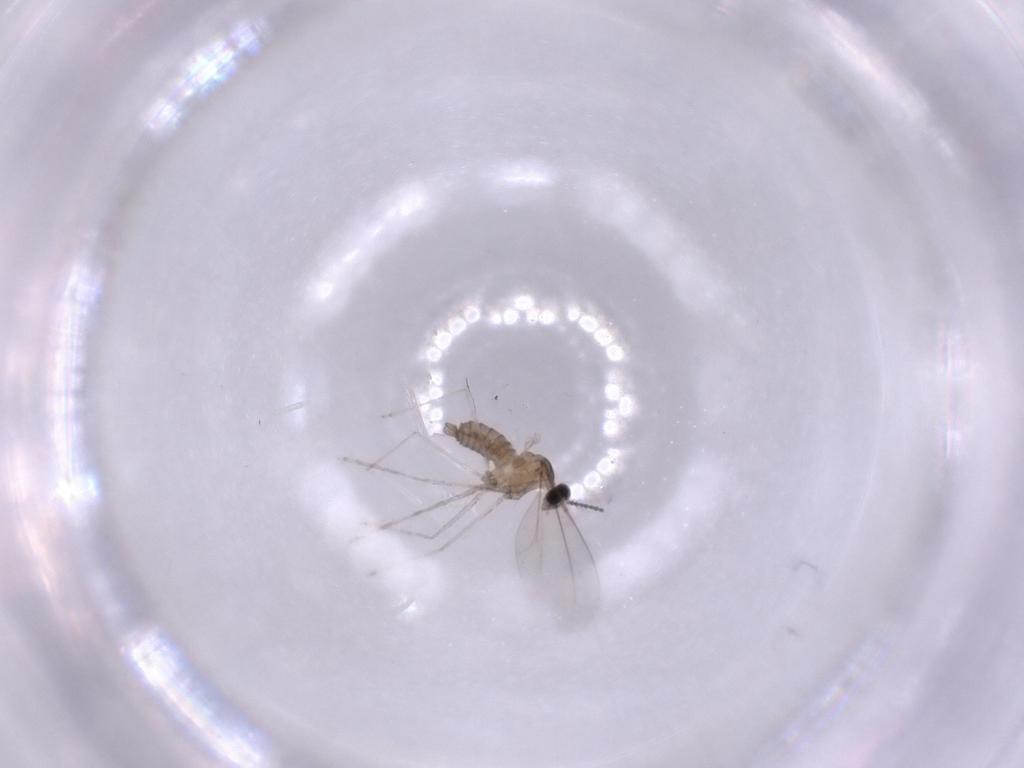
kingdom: Animalia
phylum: Arthropoda
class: Insecta
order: Diptera
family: Cecidomyiidae
